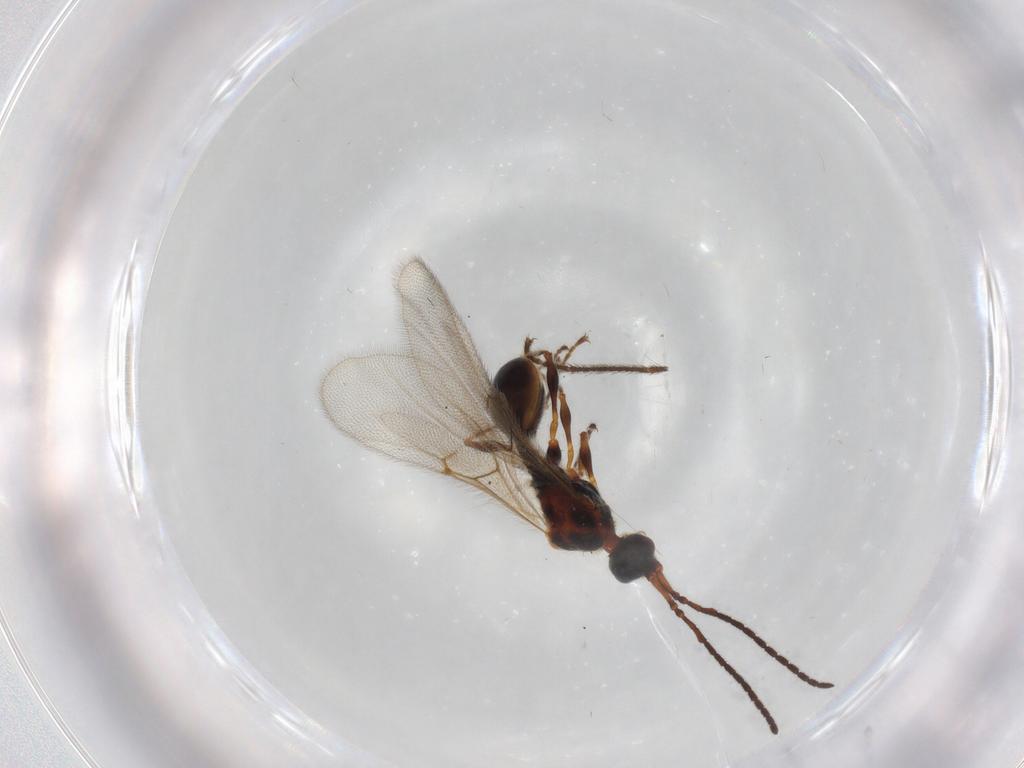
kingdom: Animalia
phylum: Arthropoda
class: Insecta
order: Hymenoptera
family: Diapriidae
